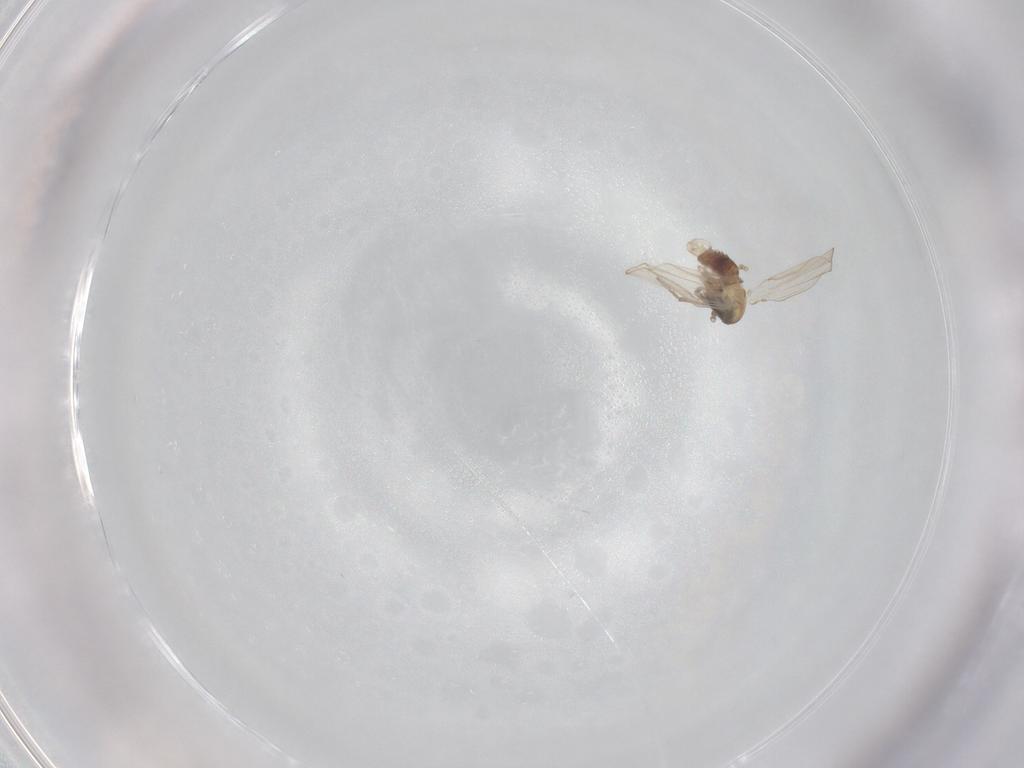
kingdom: Animalia
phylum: Arthropoda
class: Insecta
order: Diptera
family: Psychodidae
